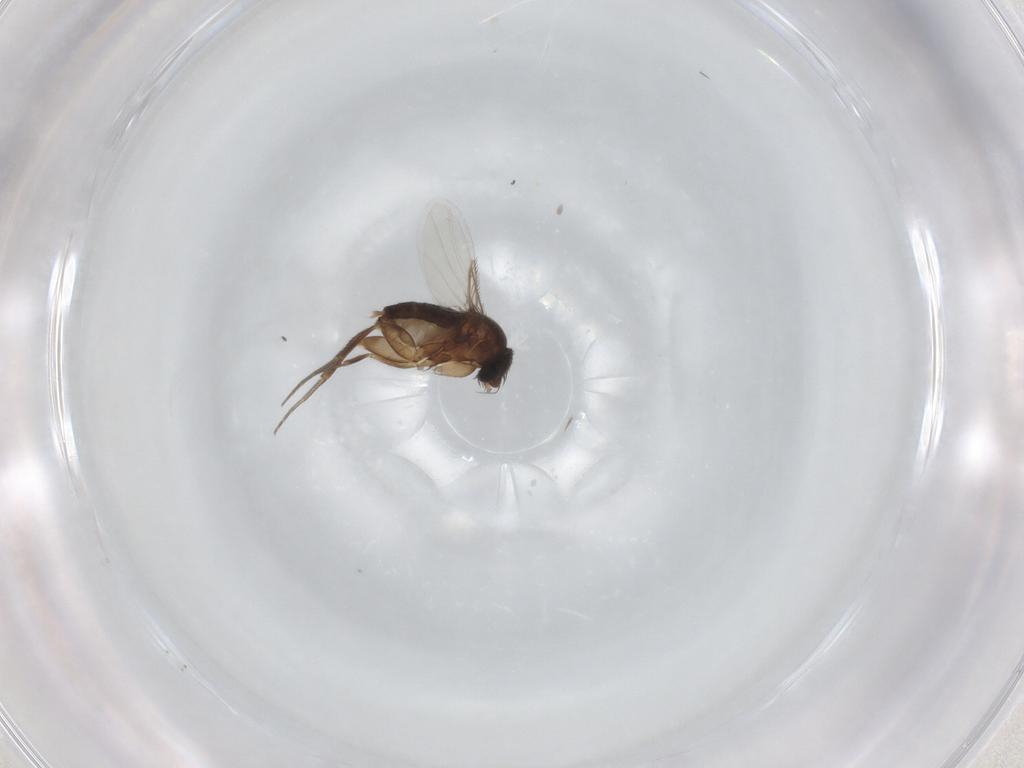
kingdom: Animalia
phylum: Arthropoda
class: Insecta
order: Diptera
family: Phoridae
